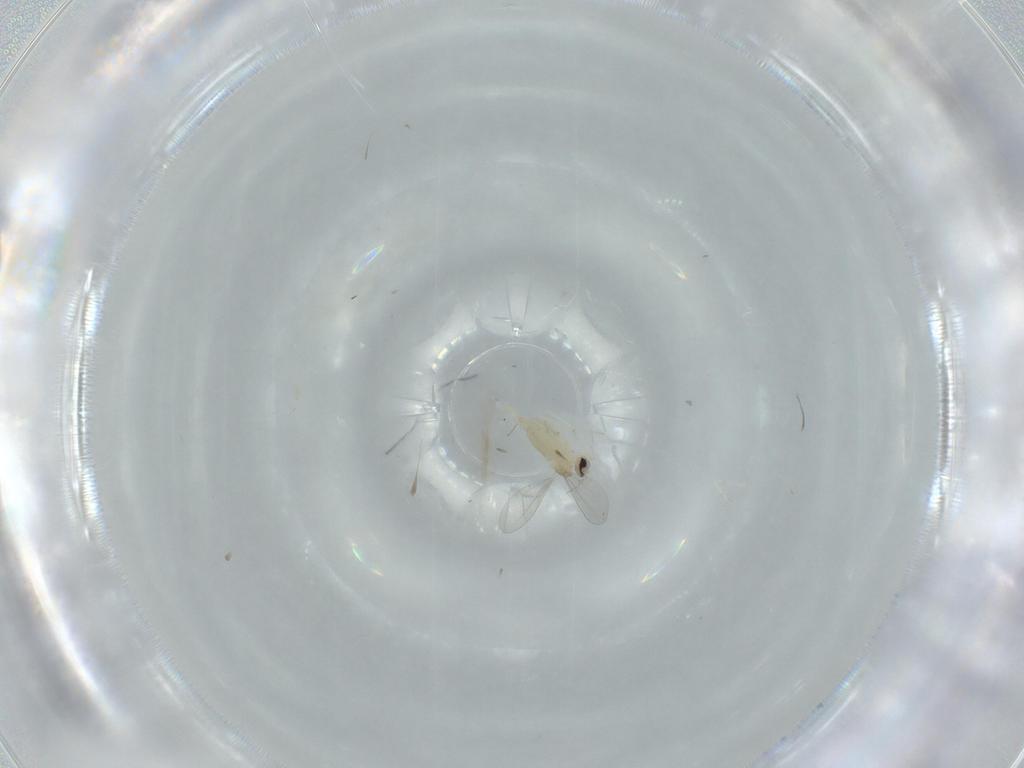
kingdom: Animalia
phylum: Arthropoda
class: Insecta
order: Diptera
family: Cecidomyiidae
